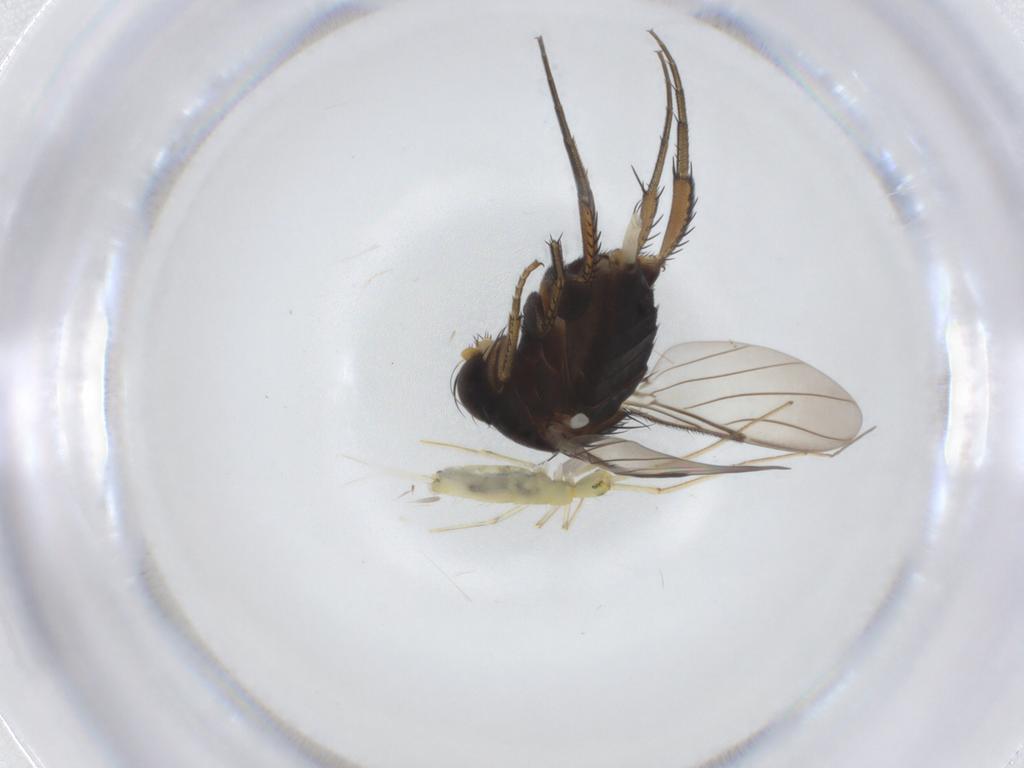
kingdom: Animalia
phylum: Arthropoda
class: Insecta
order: Diptera
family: Phoridae
